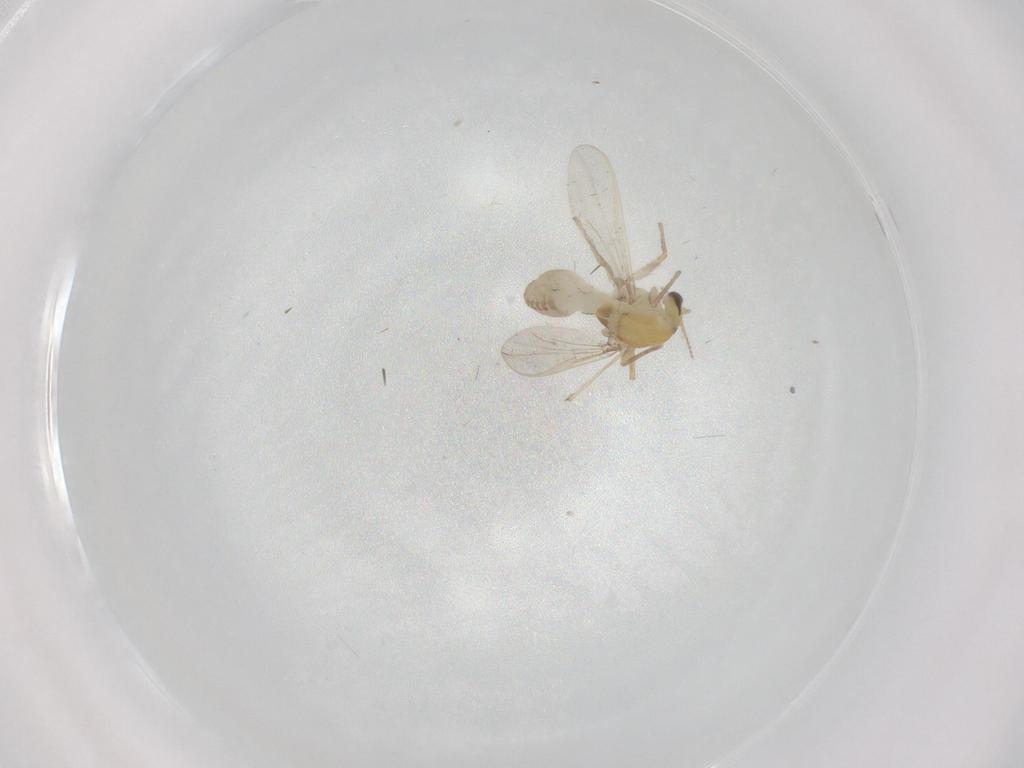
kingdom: Animalia
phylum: Arthropoda
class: Insecta
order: Diptera
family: Chironomidae
